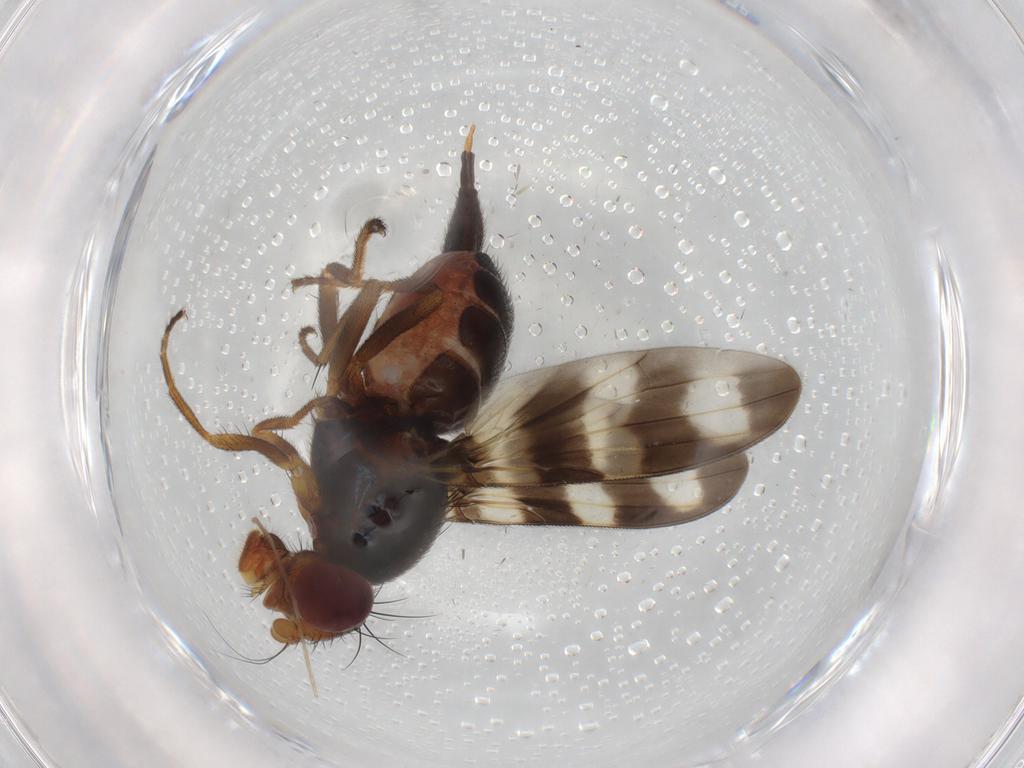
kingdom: Animalia
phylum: Arthropoda
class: Insecta
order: Diptera
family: Ulidiidae
